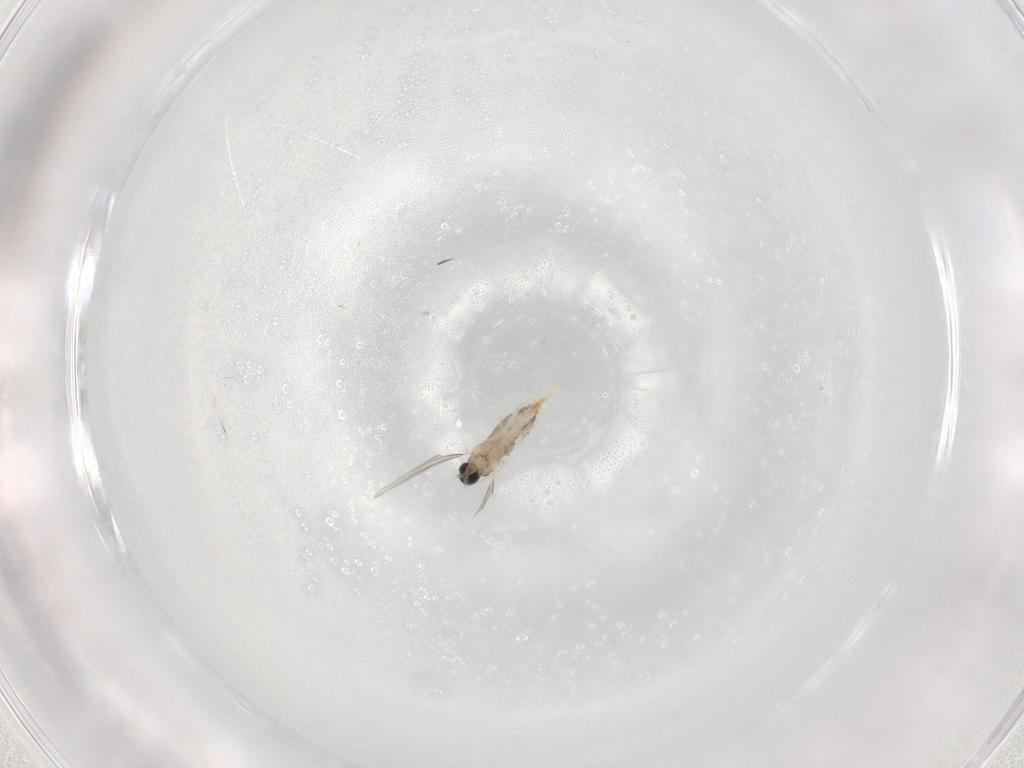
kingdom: Animalia
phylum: Arthropoda
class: Insecta
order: Diptera
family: Cecidomyiidae
